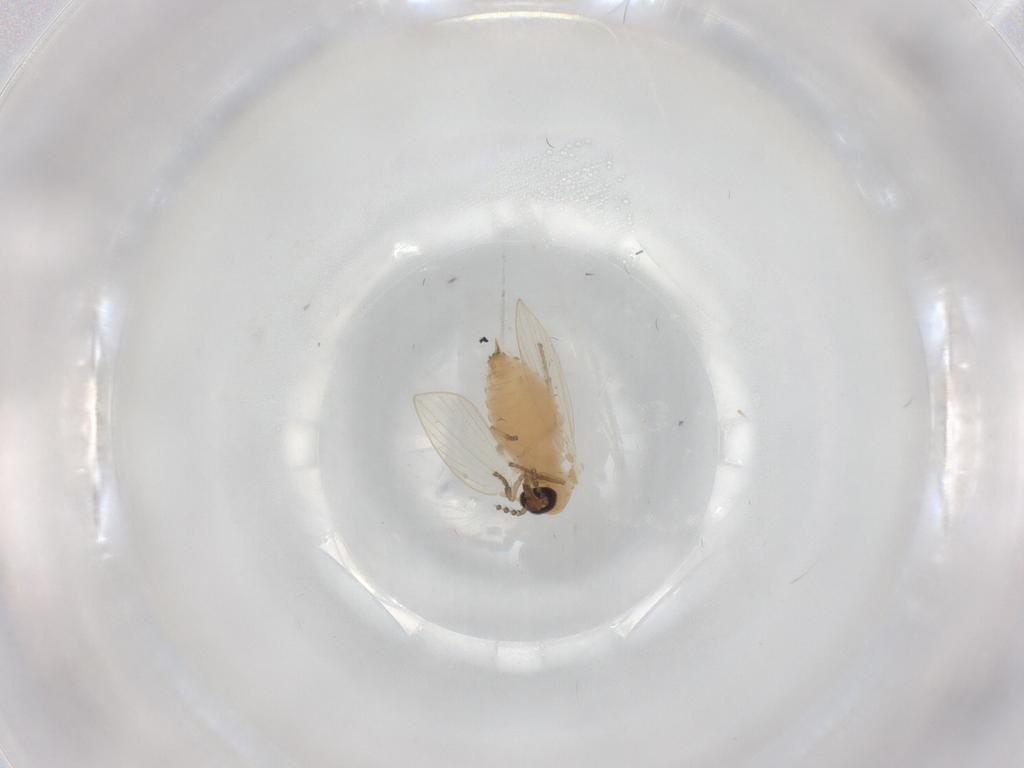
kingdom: Animalia
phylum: Arthropoda
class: Insecta
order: Diptera
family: Psychodidae
